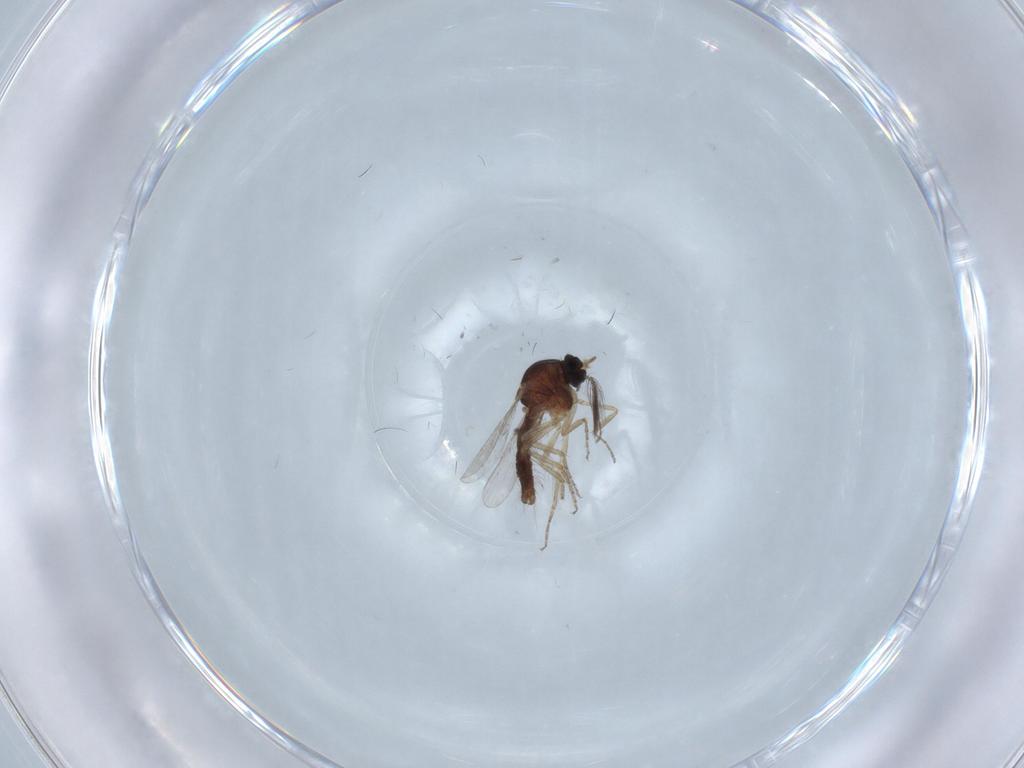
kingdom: Animalia
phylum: Arthropoda
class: Insecta
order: Diptera
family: Ceratopogonidae
